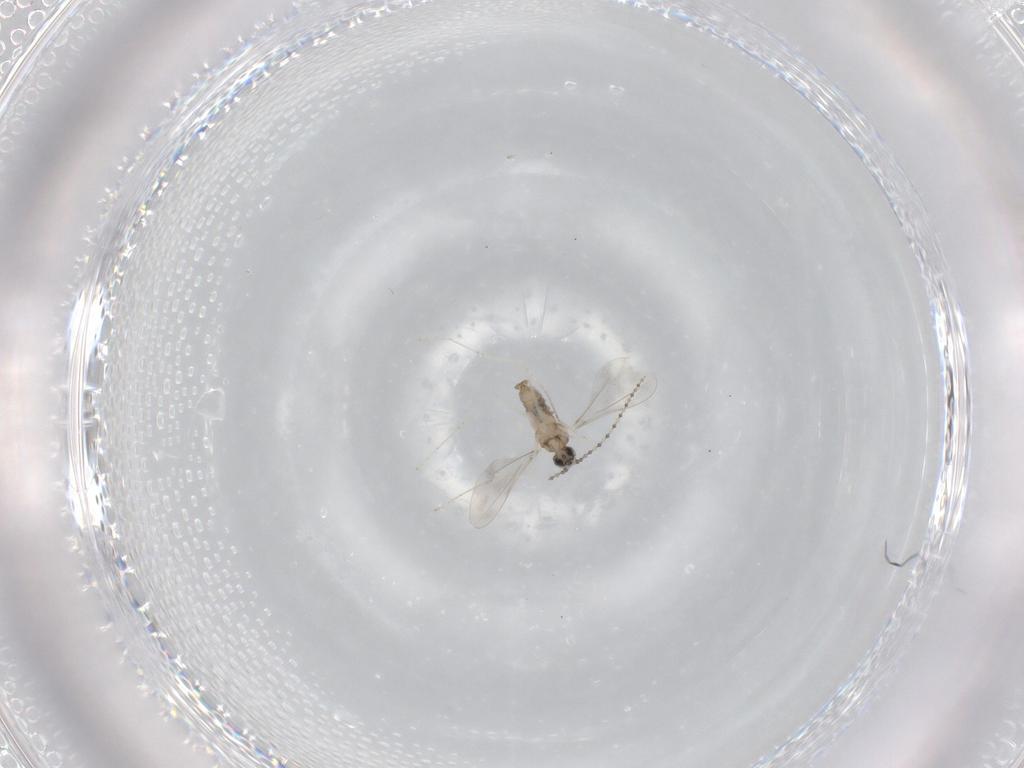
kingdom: Animalia
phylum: Arthropoda
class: Insecta
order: Diptera
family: Cecidomyiidae
